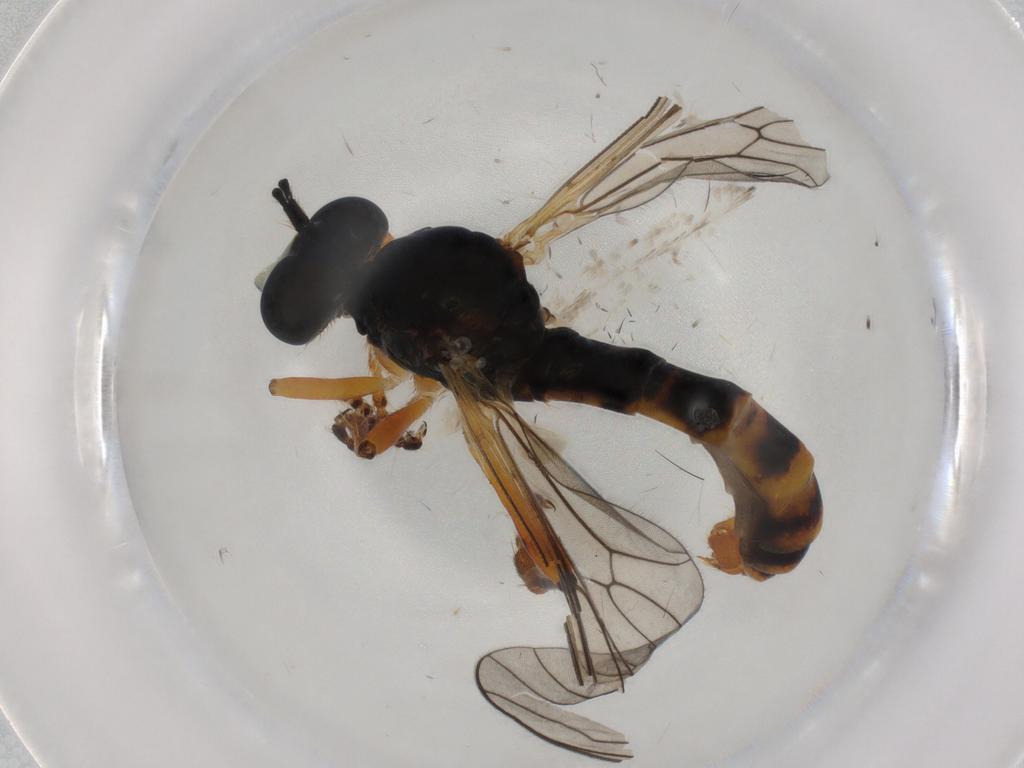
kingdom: Animalia
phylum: Arthropoda
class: Insecta
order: Diptera
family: Asilidae
